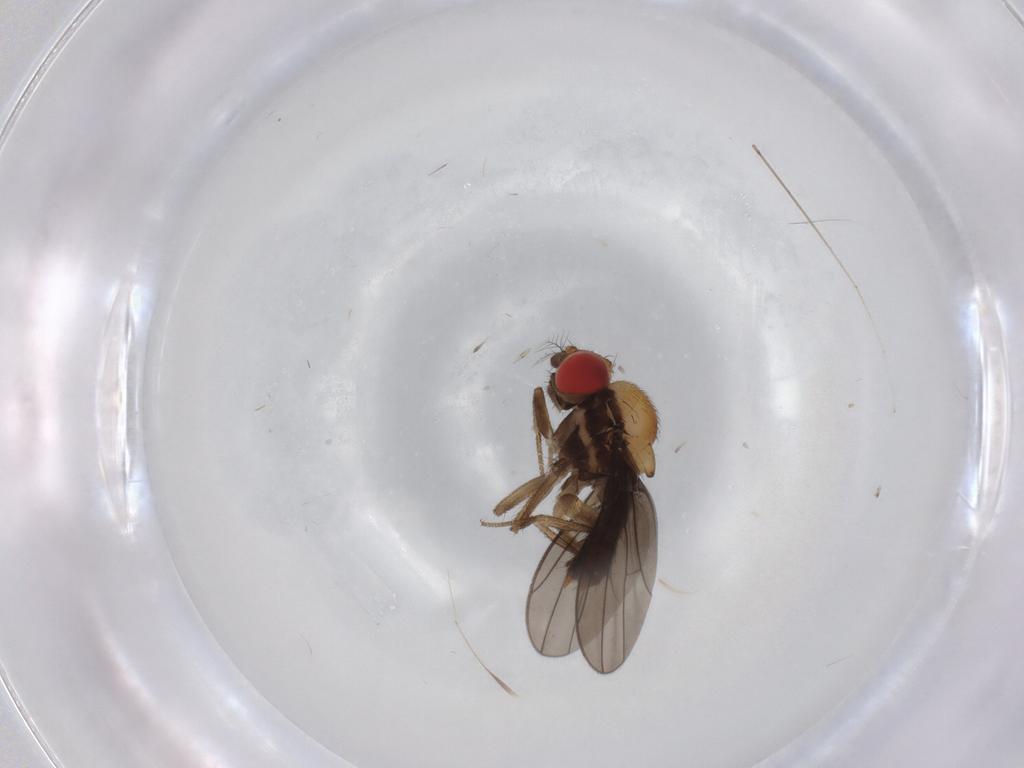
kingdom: Animalia
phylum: Arthropoda
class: Insecta
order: Diptera
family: Drosophilidae
